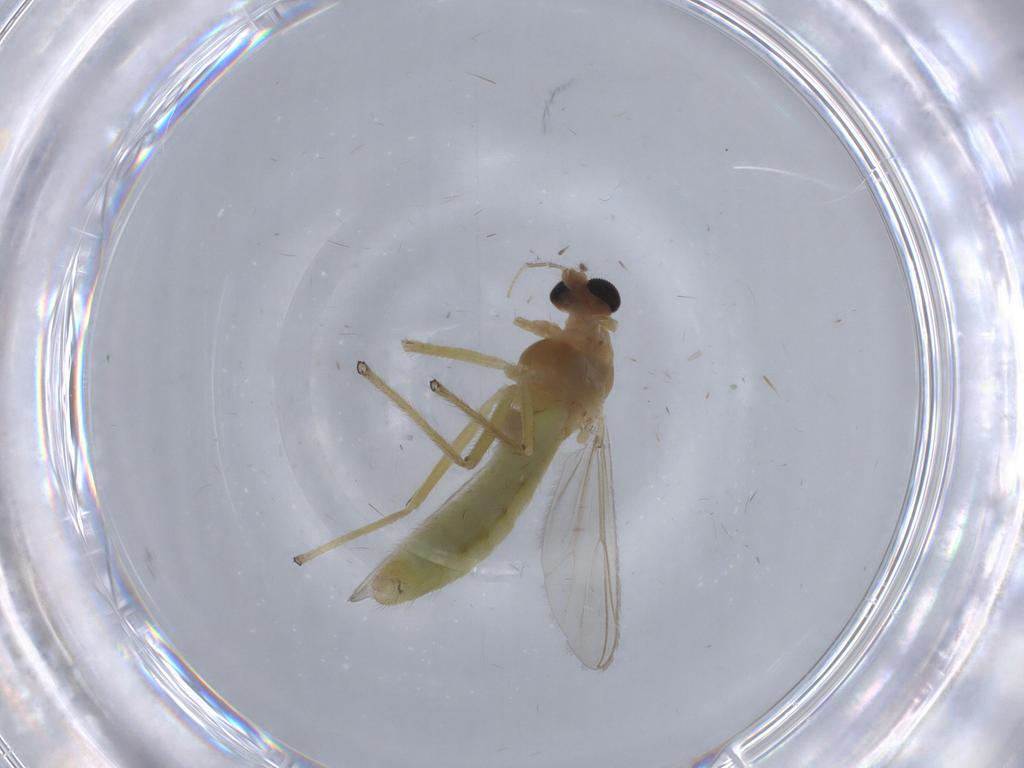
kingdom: Animalia
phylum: Arthropoda
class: Insecta
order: Diptera
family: Chironomidae
